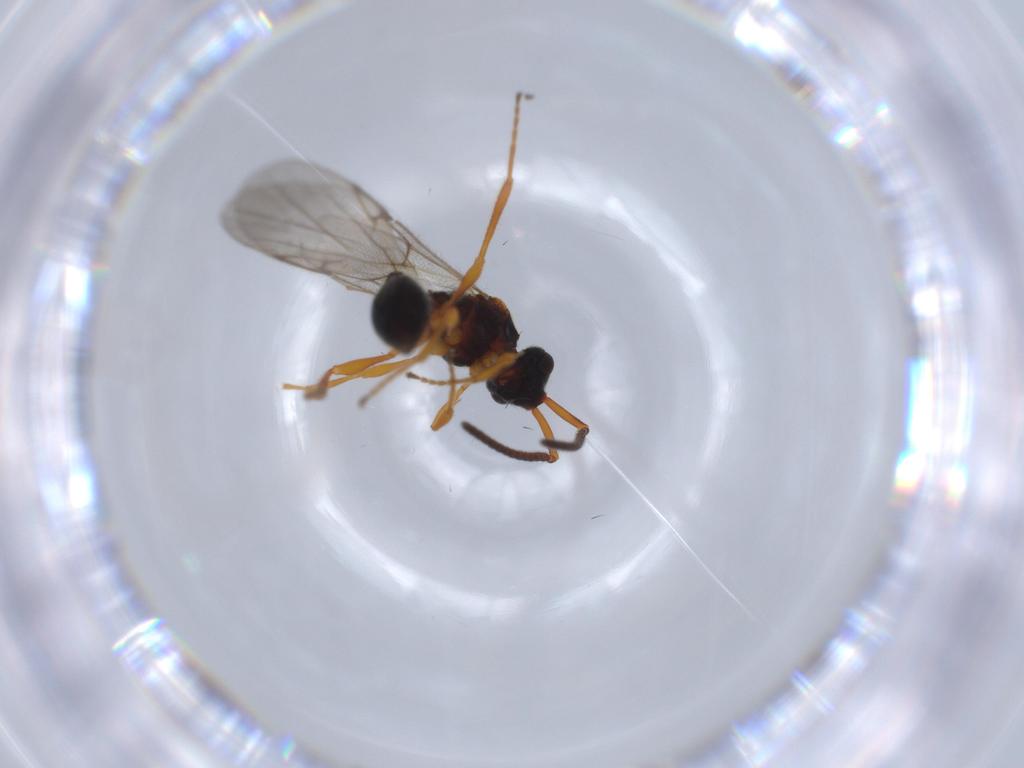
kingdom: Animalia
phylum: Arthropoda
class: Insecta
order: Hymenoptera
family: Braconidae
